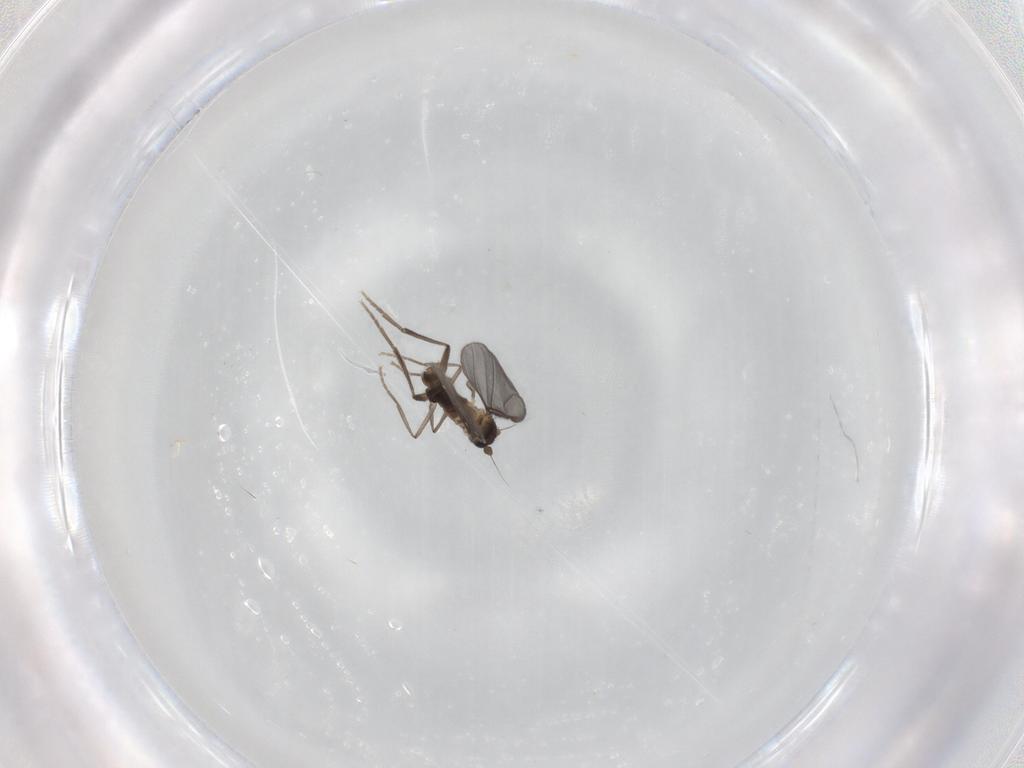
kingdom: Animalia
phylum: Arthropoda
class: Insecta
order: Diptera
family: Phoridae
